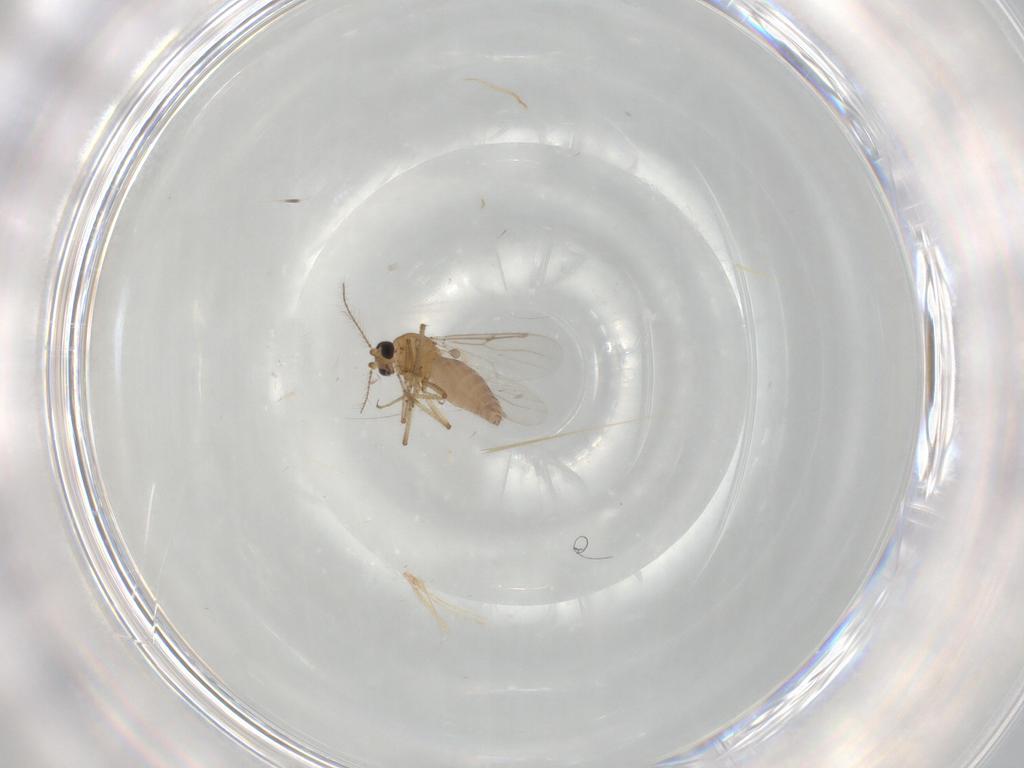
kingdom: Animalia
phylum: Arthropoda
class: Insecta
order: Diptera
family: Ceratopogonidae
